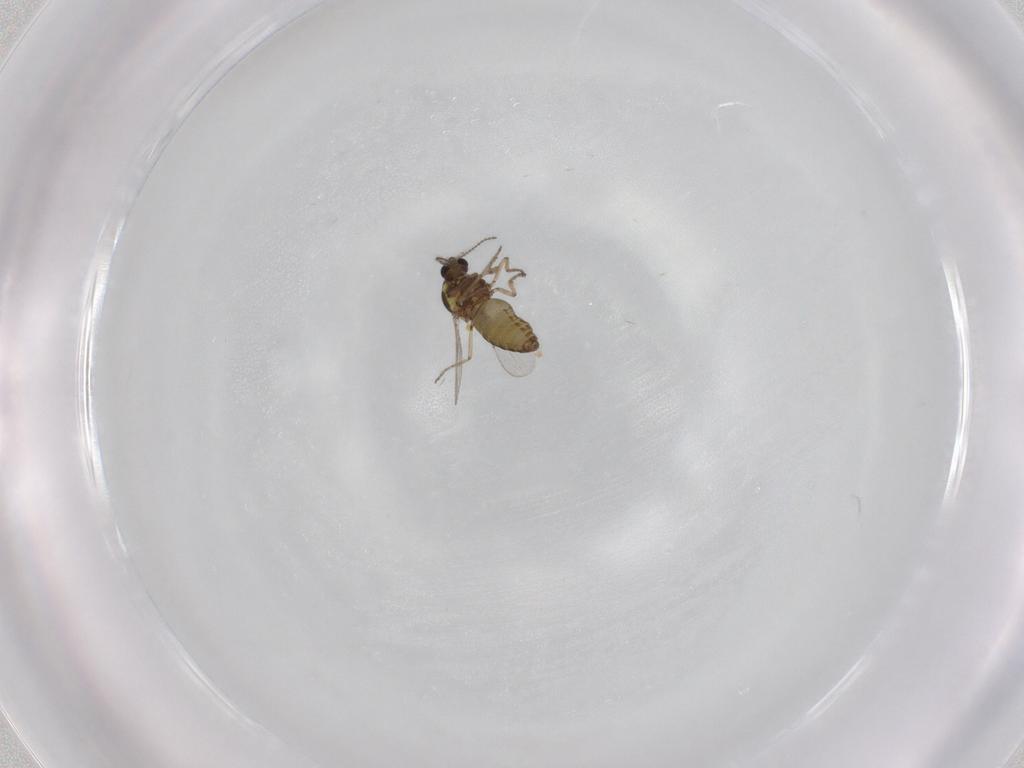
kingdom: Animalia
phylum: Arthropoda
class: Insecta
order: Diptera
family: Ceratopogonidae
